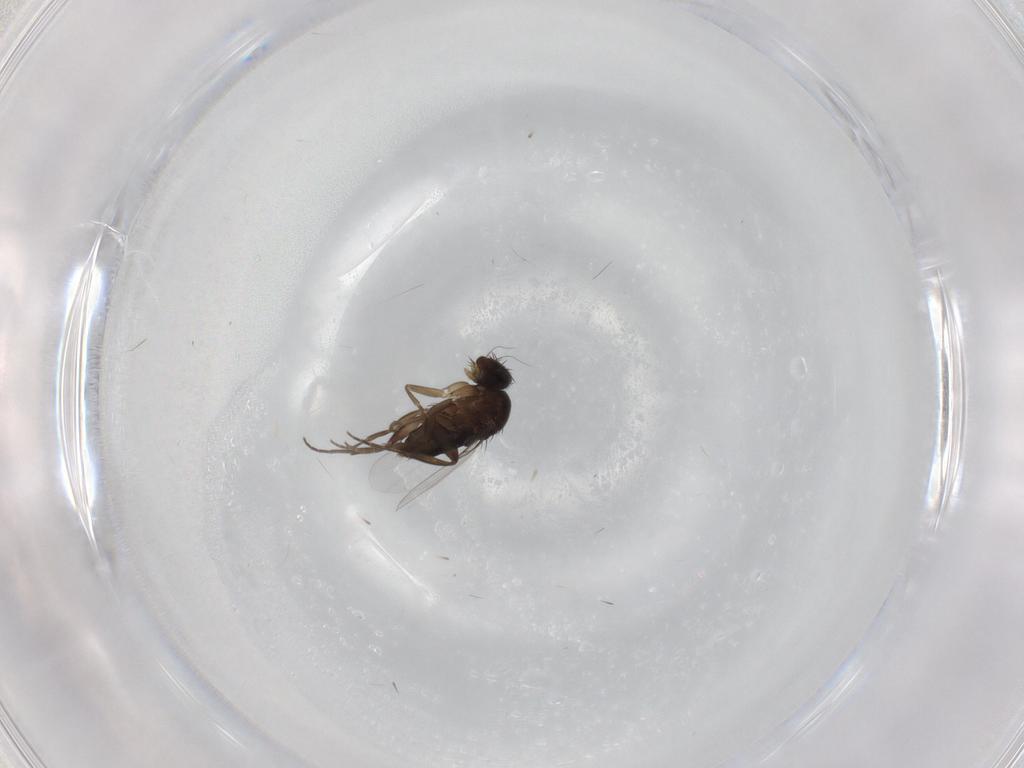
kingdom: Animalia
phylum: Arthropoda
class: Insecta
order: Diptera
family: Phoridae
